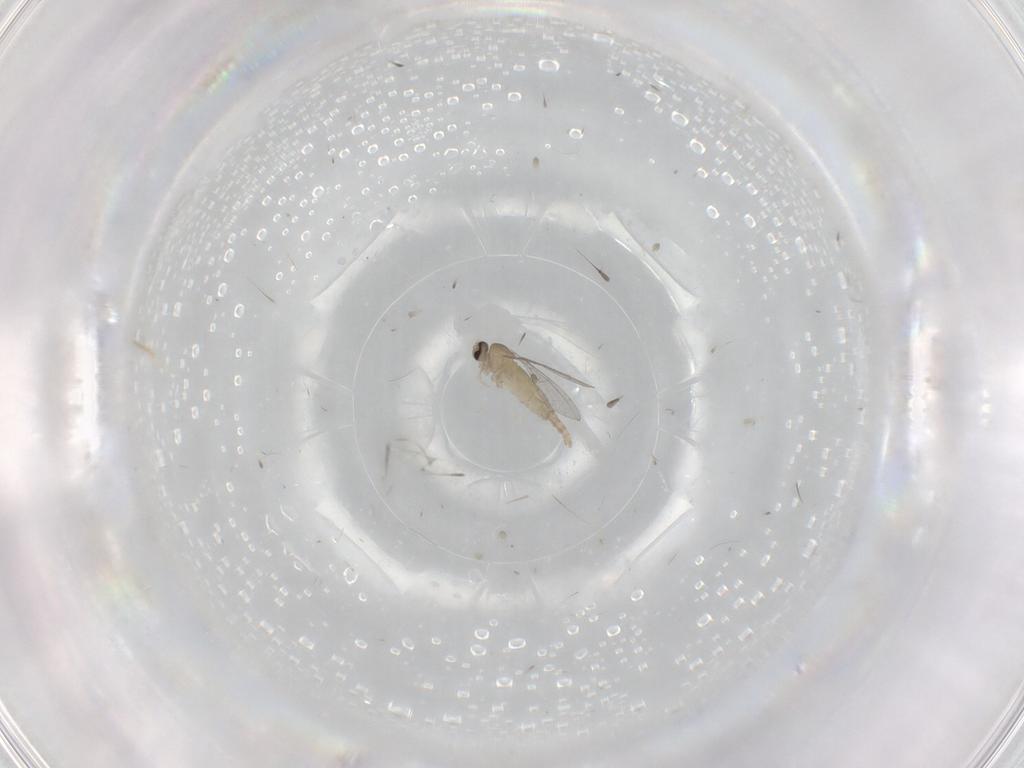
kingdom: Animalia
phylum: Arthropoda
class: Insecta
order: Diptera
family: Cecidomyiidae
